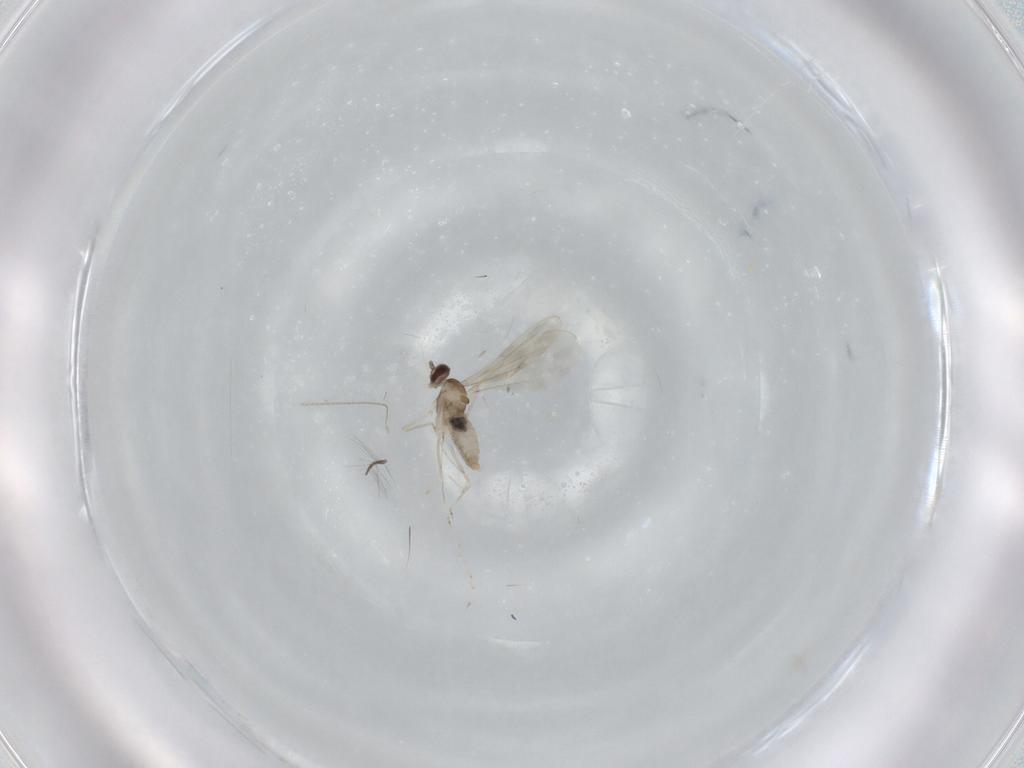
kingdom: Animalia
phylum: Arthropoda
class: Insecta
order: Diptera
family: Cecidomyiidae
